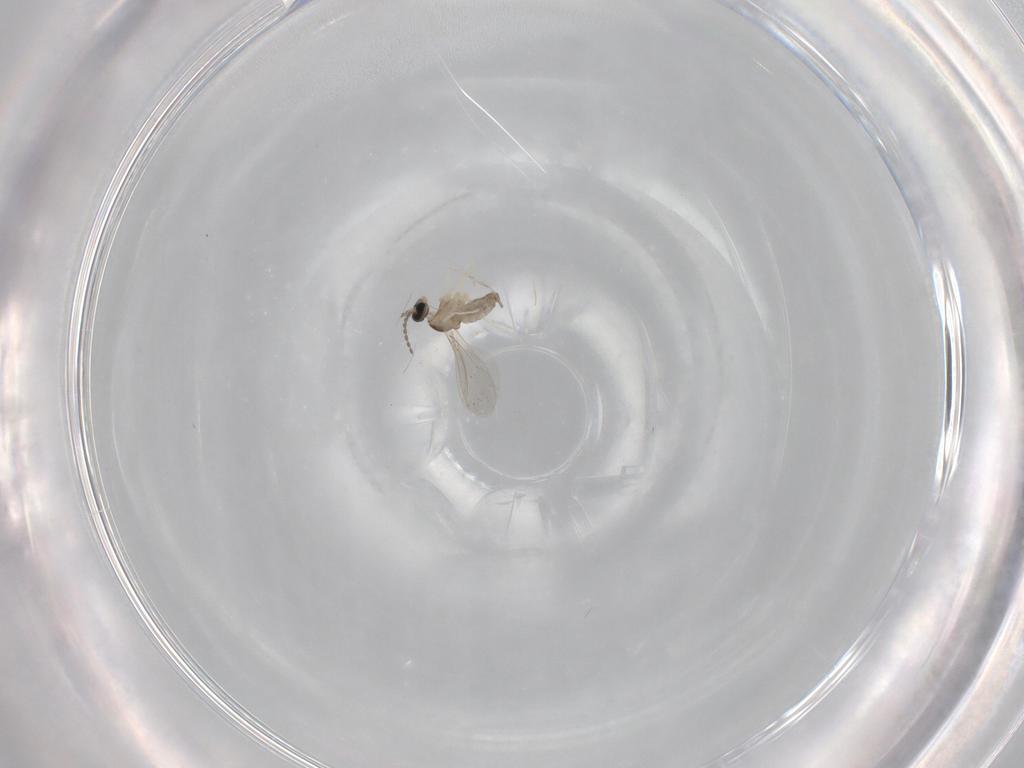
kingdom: Animalia
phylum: Arthropoda
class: Insecta
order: Diptera
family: Cecidomyiidae
